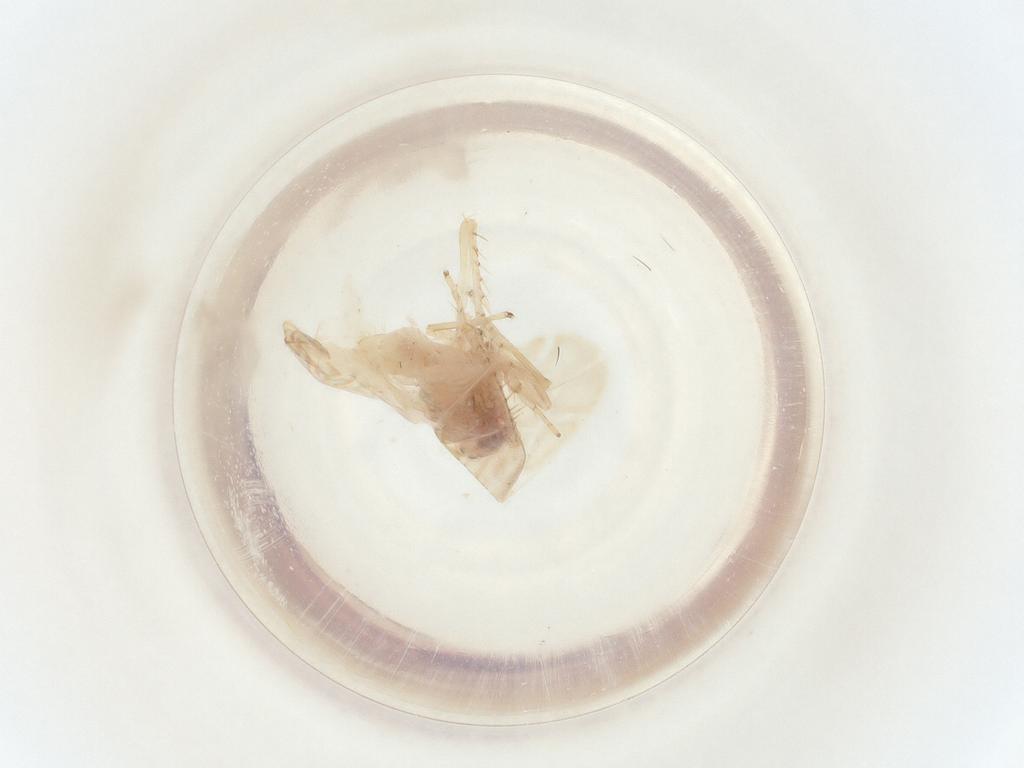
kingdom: Animalia
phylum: Arthropoda
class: Insecta
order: Hemiptera
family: Cicadellidae
